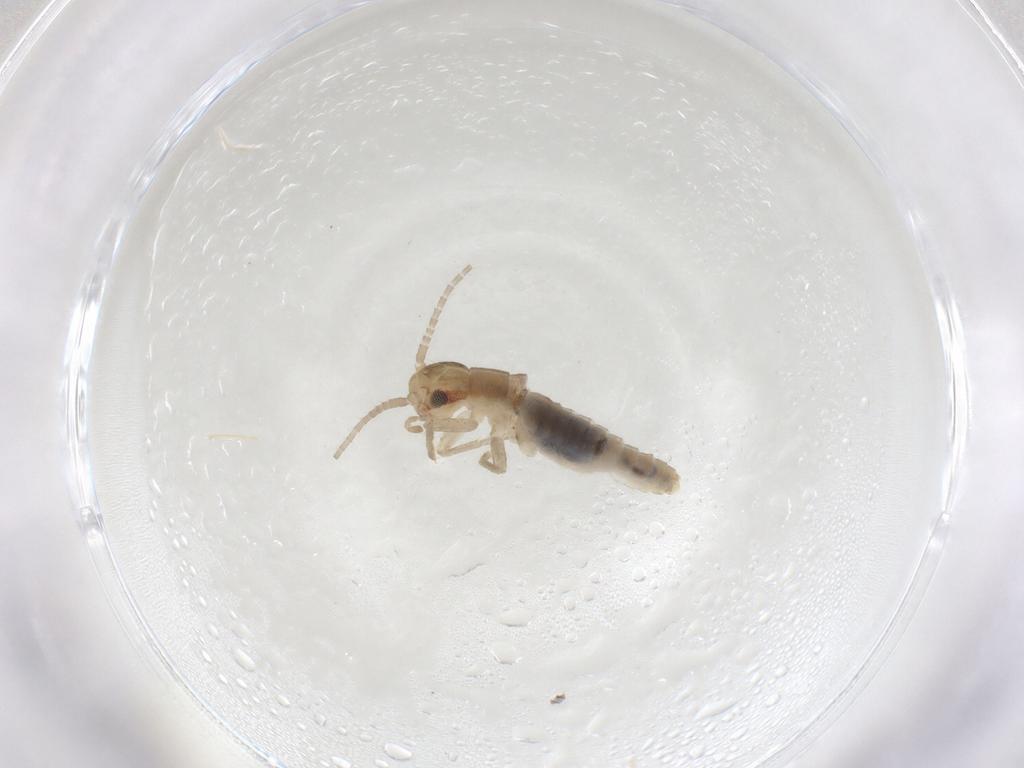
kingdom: Animalia
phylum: Arthropoda
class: Insecta
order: Orthoptera
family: Gryllidae
